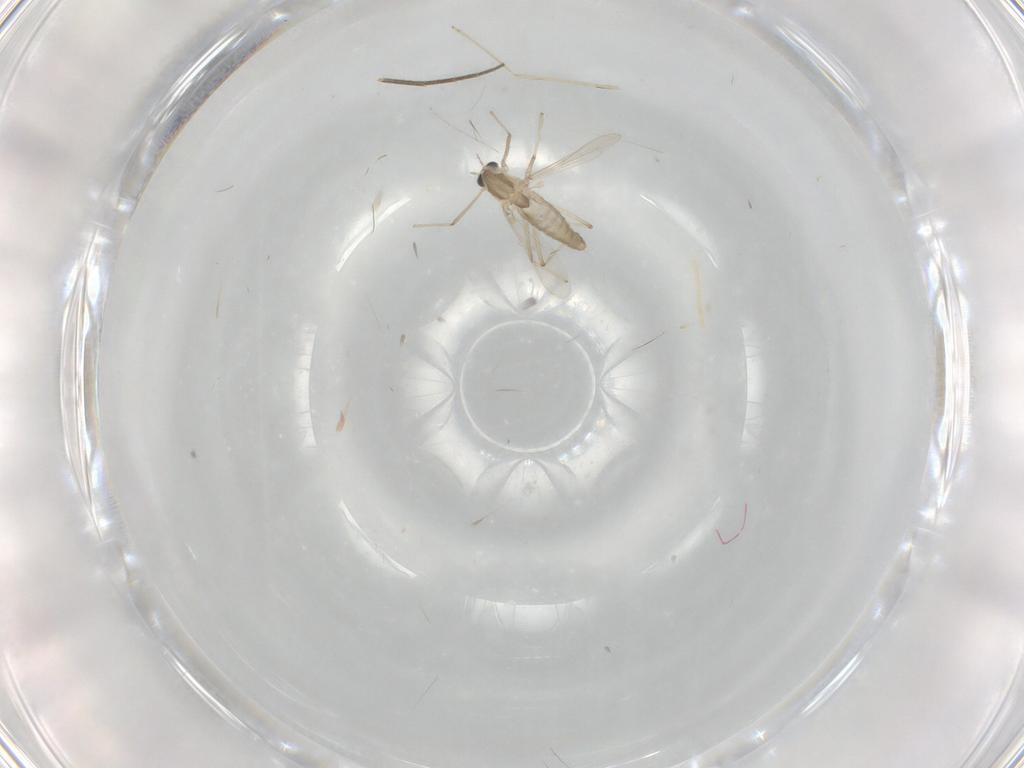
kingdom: Animalia
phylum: Arthropoda
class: Insecta
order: Diptera
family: Chironomidae
